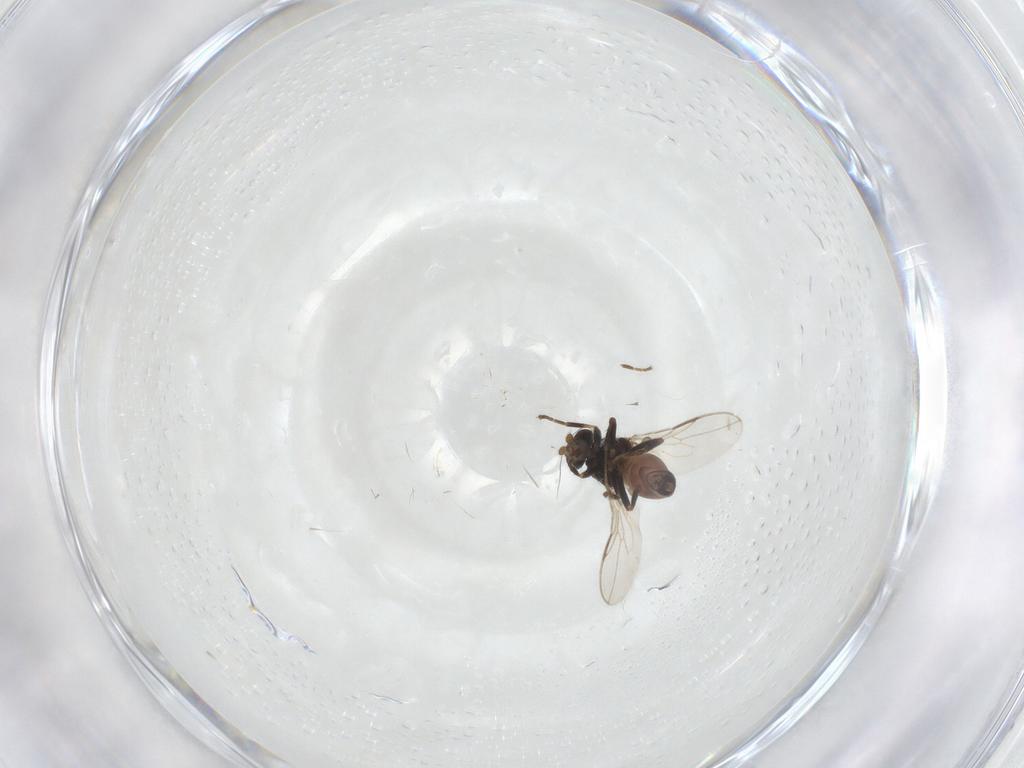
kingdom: Animalia
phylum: Arthropoda
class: Insecta
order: Diptera
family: Sphaeroceridae
